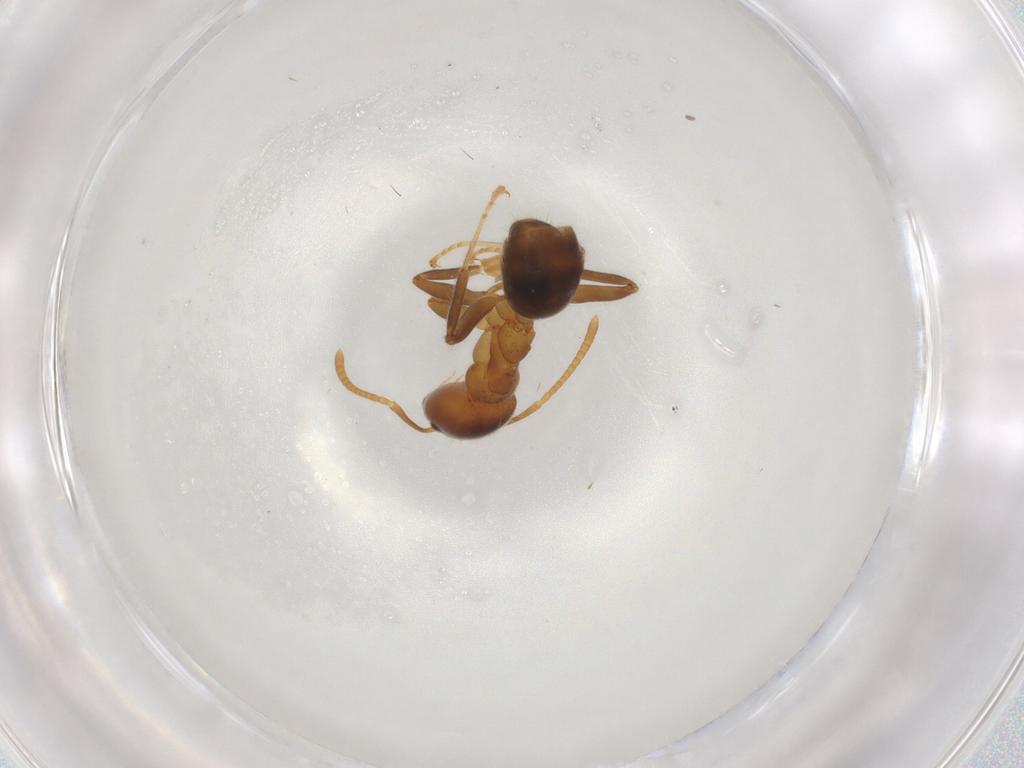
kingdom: Animalia
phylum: Arthropoda
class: Insecta
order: Hymenoptera
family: Formicidae
